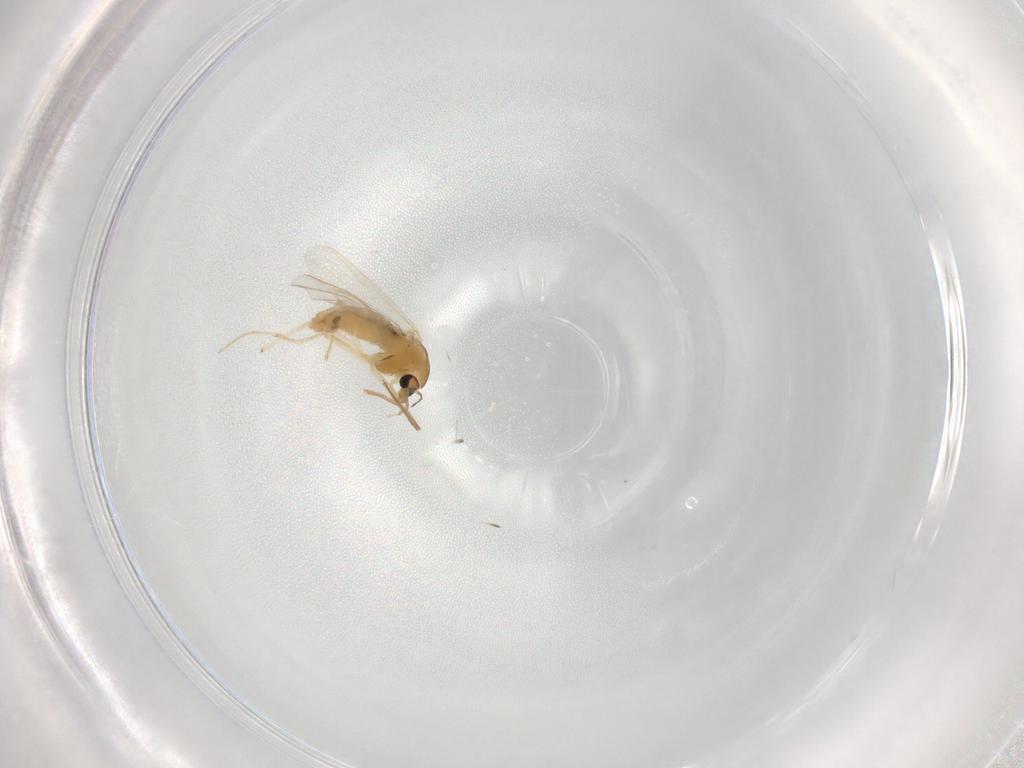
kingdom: Animalia
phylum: Arthropoda
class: Insecta
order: Diptera
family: Chironomidae
